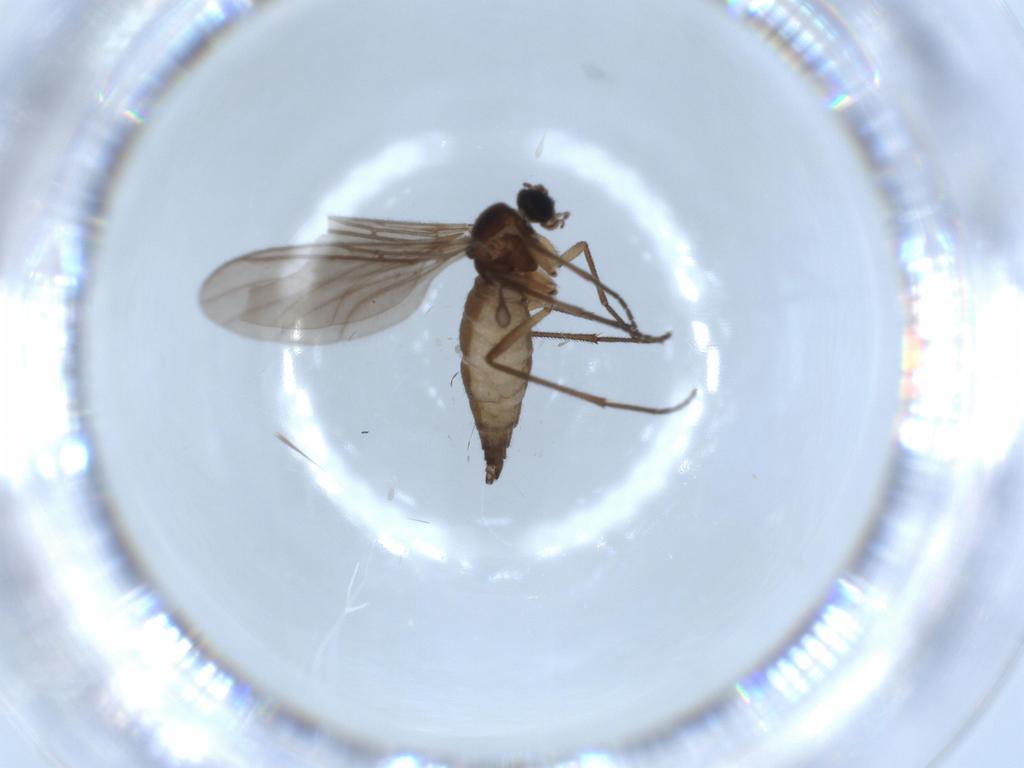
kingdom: Animalia
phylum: Arthropoda
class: Insecta
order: Diptera
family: Sciaridae
